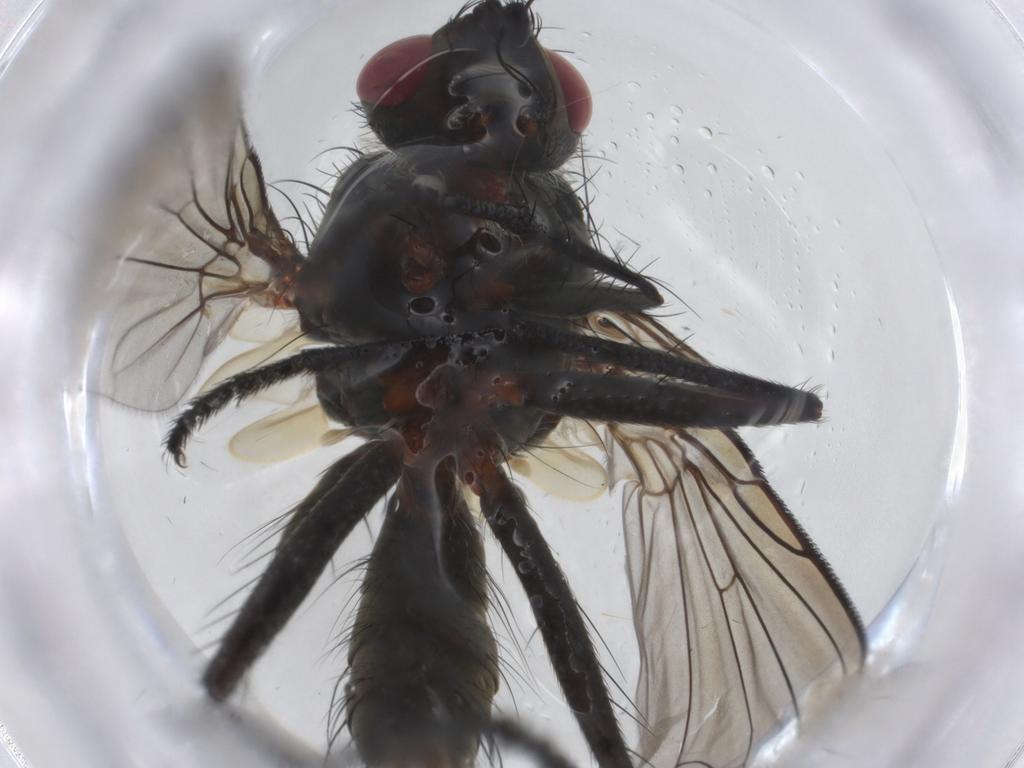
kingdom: Animalia
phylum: Arthropoda
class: Insecta
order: Diptera
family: Tachinidae
